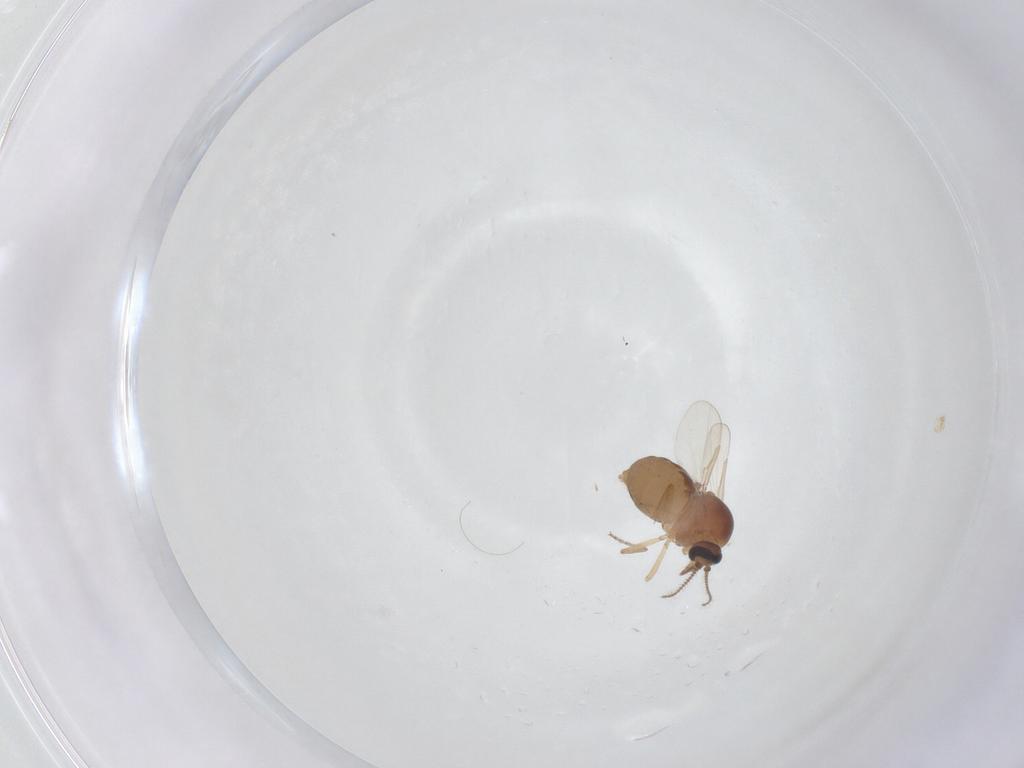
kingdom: Animalia
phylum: Arthropoda
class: Insecta
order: Diptera
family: Ceratopogonidae
